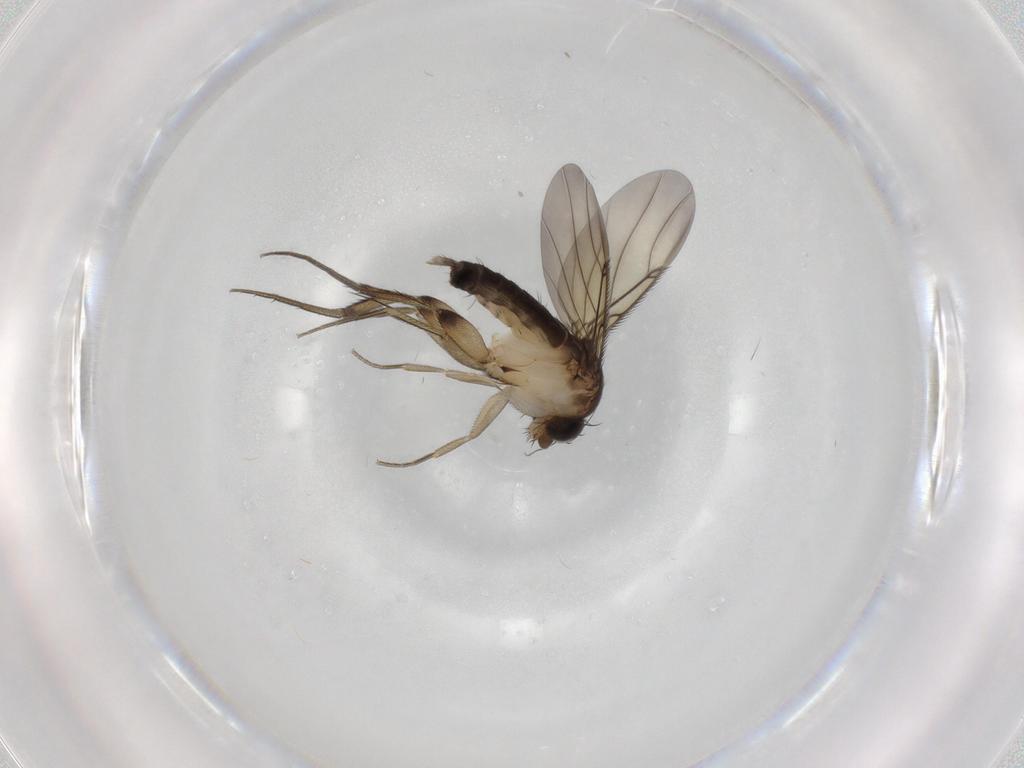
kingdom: Animalia
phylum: Arthropoda
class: Insecta
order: Diptera
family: Phoridae
